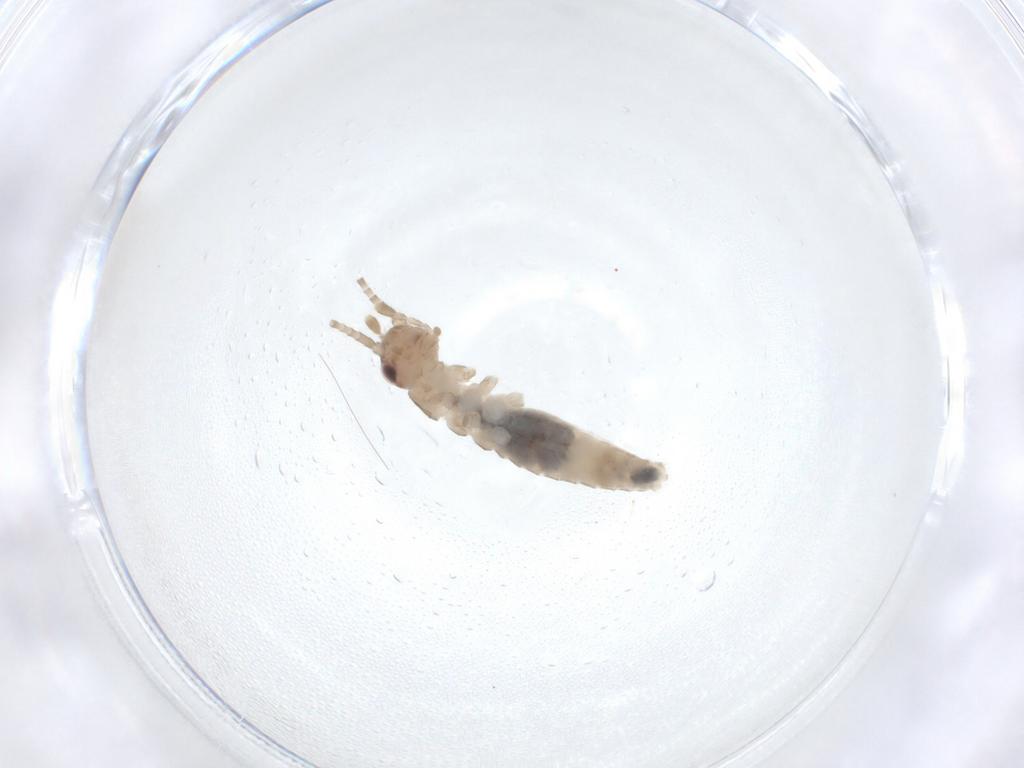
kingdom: Animalia
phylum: Arthropoda
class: Insecta
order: Orthoptera
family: Gryllidae
